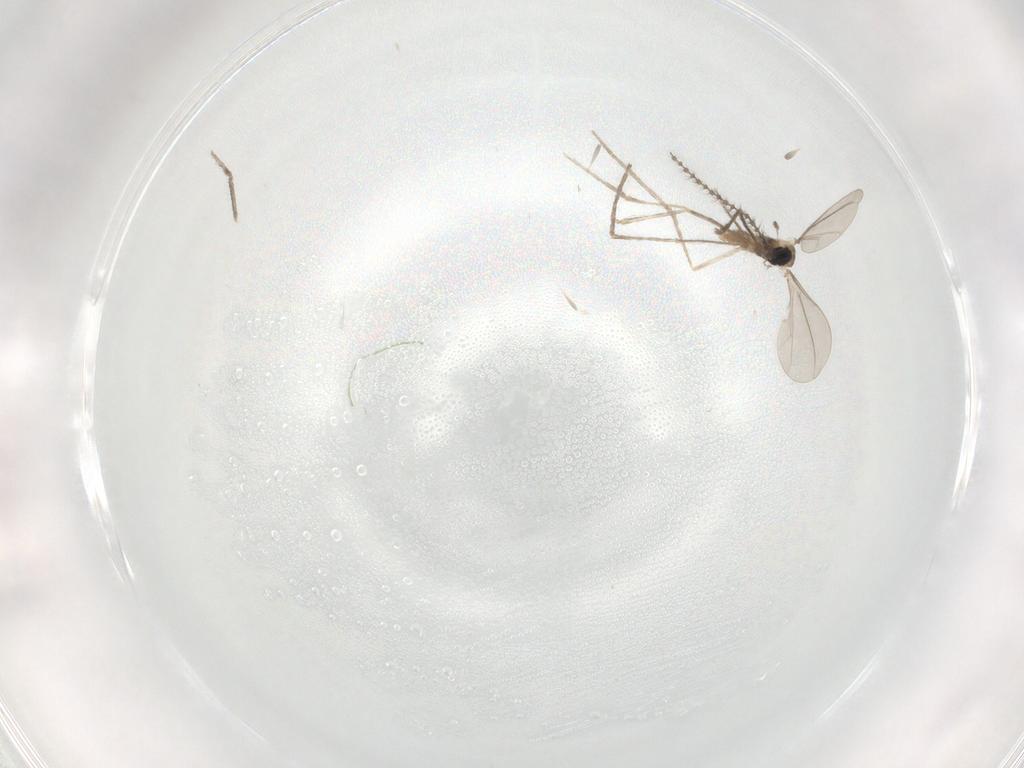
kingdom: Animalia
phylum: Arthropoda
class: Insecta
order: Diptera
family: Cecidomyiidae
